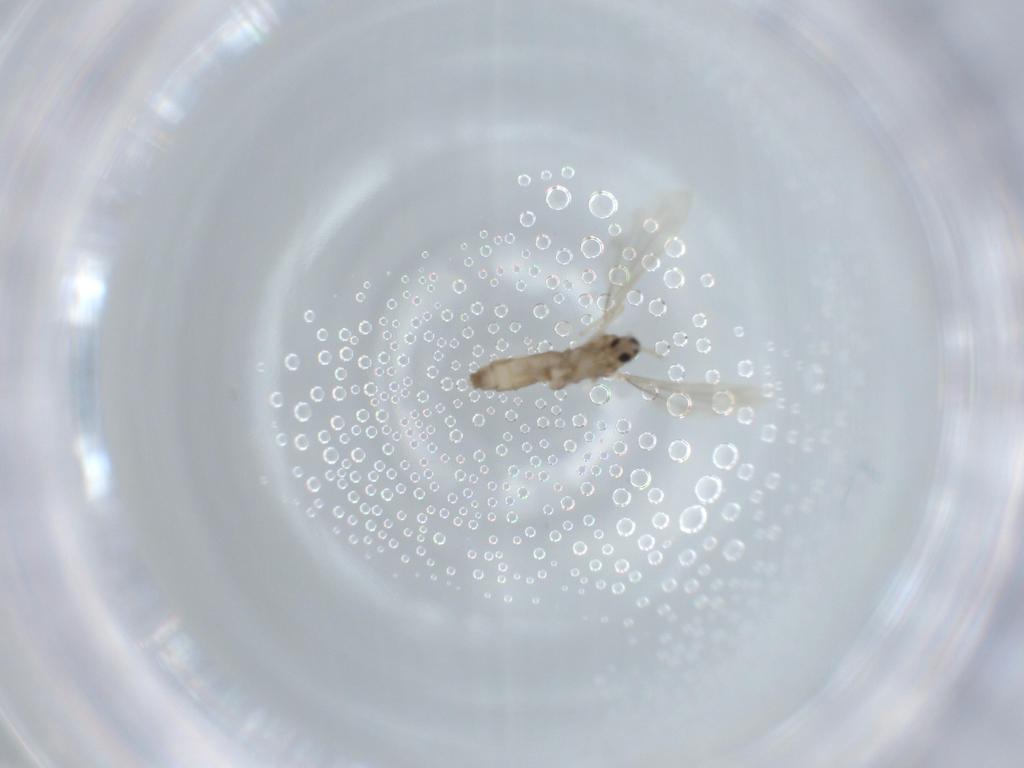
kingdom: Animalia
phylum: Arthropoda
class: Insecta
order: Diptera
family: Cecidomyiidae
